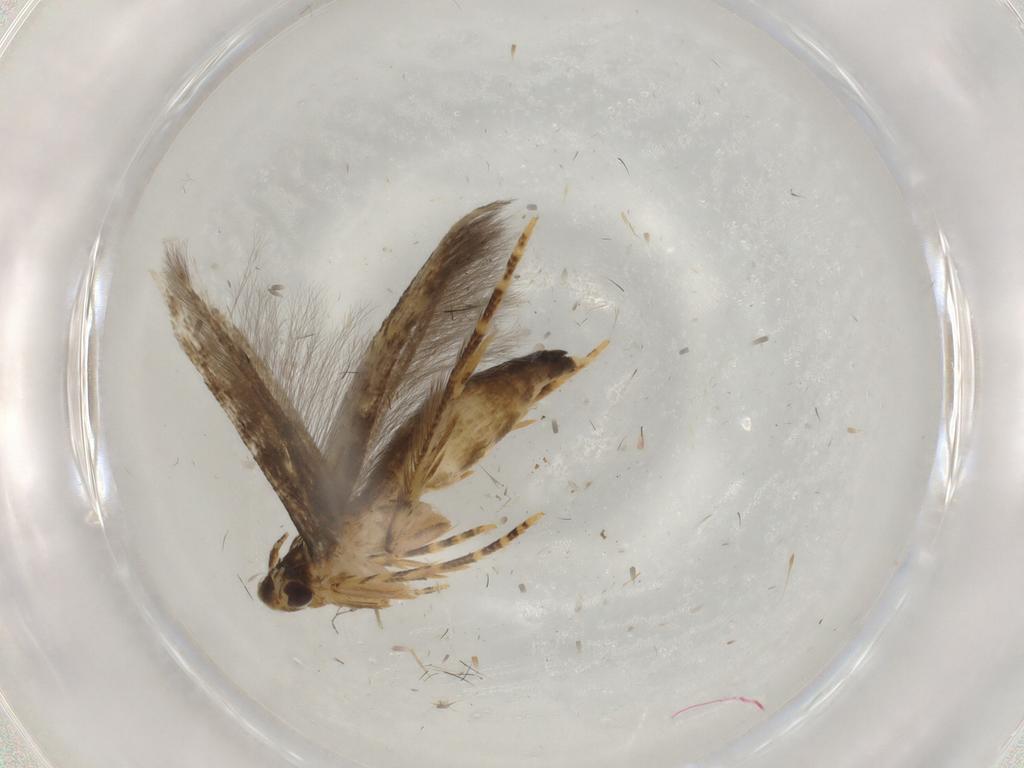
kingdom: Animalia
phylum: Arthropoda
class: Insecta
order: Lepidoptera
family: Gelechiidae
